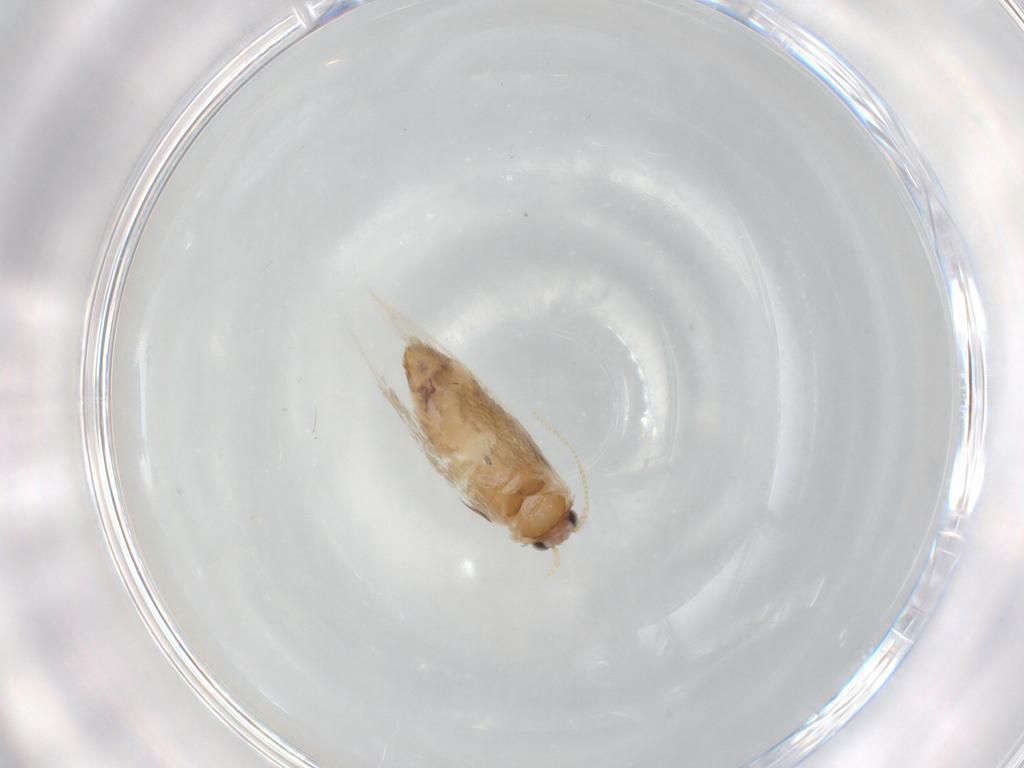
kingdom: Animalia
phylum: Arthropoda
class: Insecta
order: Lepidoptera
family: Nepticulidae
